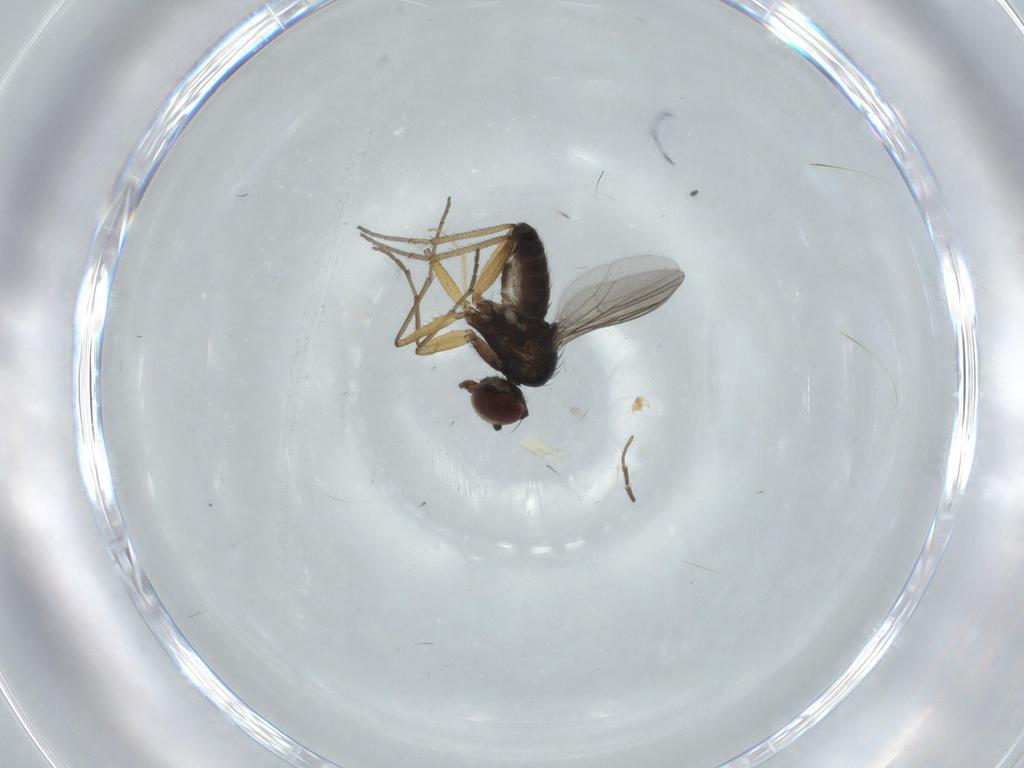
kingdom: Animalia
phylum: Arthropoda
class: Insecta
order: Diptera
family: Dolichopodidae
